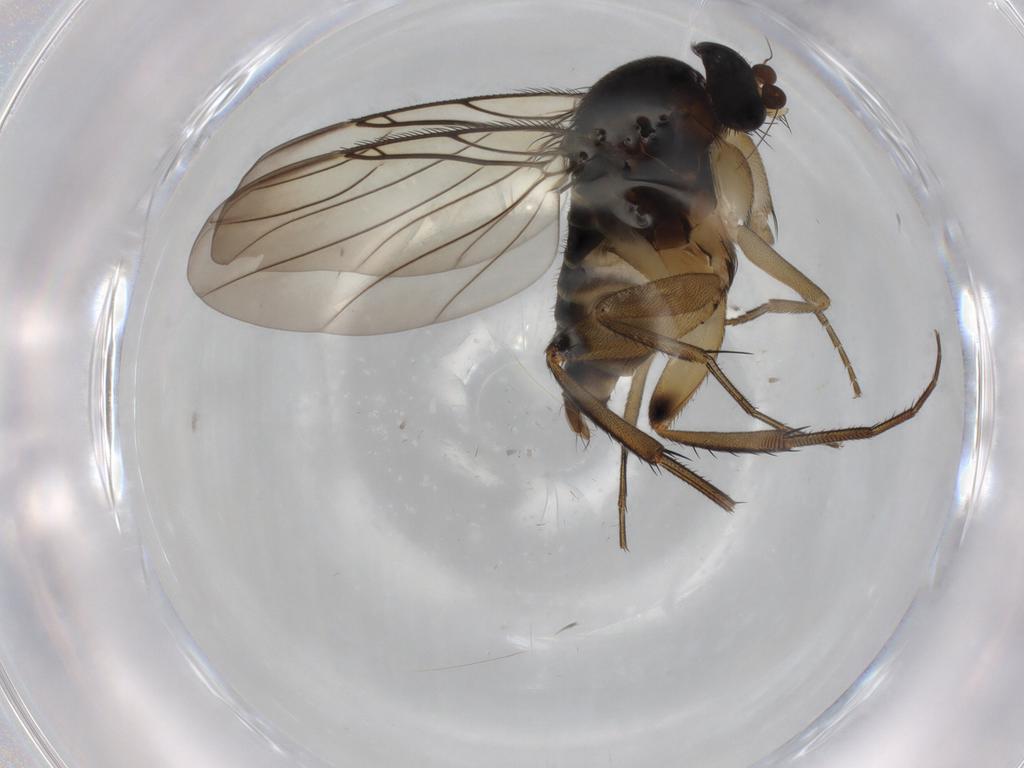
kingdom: Animalia
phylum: Arthropoda
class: Insecta
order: Diptera
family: Phoridae
